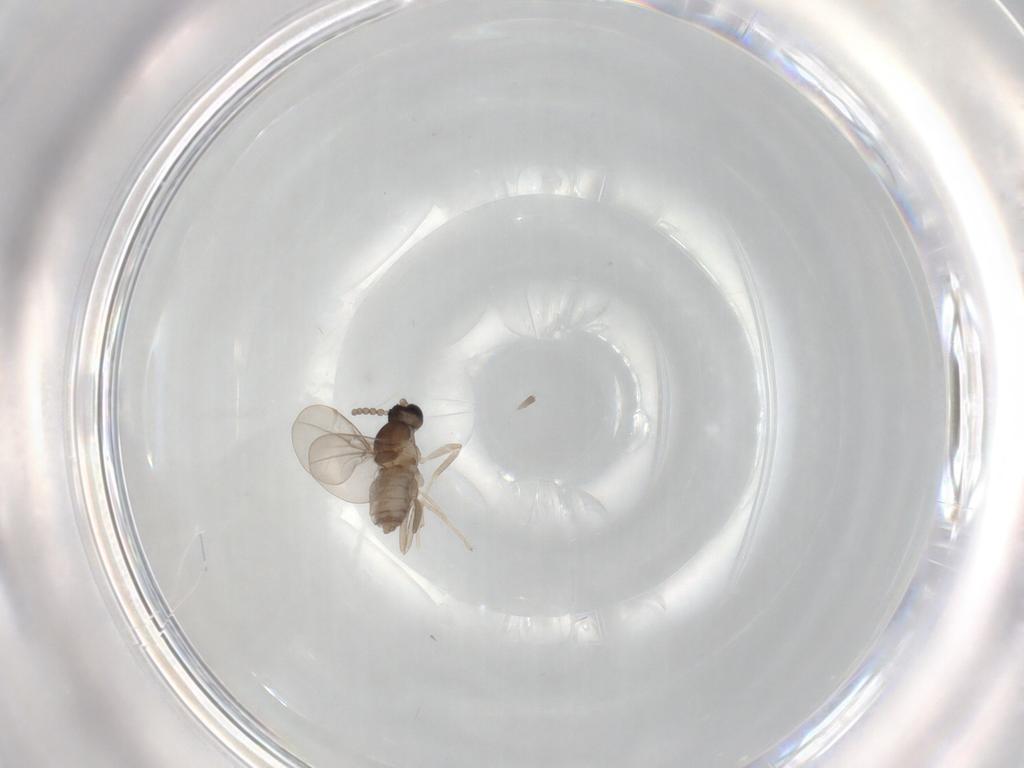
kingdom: Animalia
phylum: Arthropoda
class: Insecta
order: Diptera
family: Cecidomyiidae
